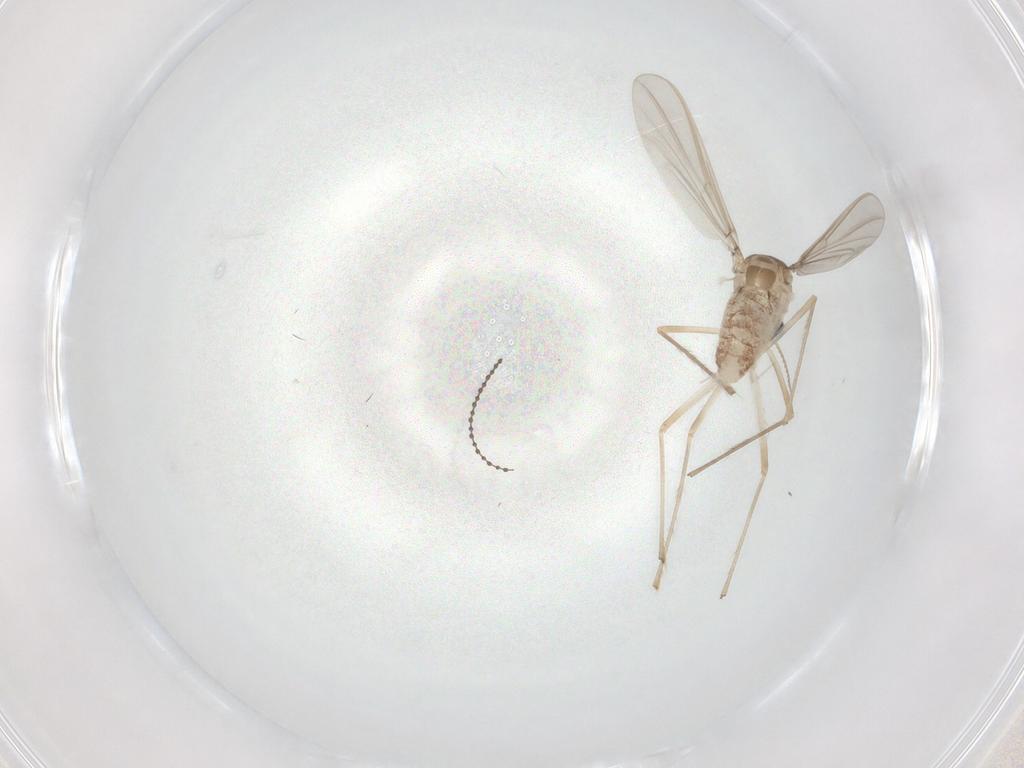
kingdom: Animalia
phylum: Arthropoda
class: Insecta
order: Diptera
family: Chironomidae
